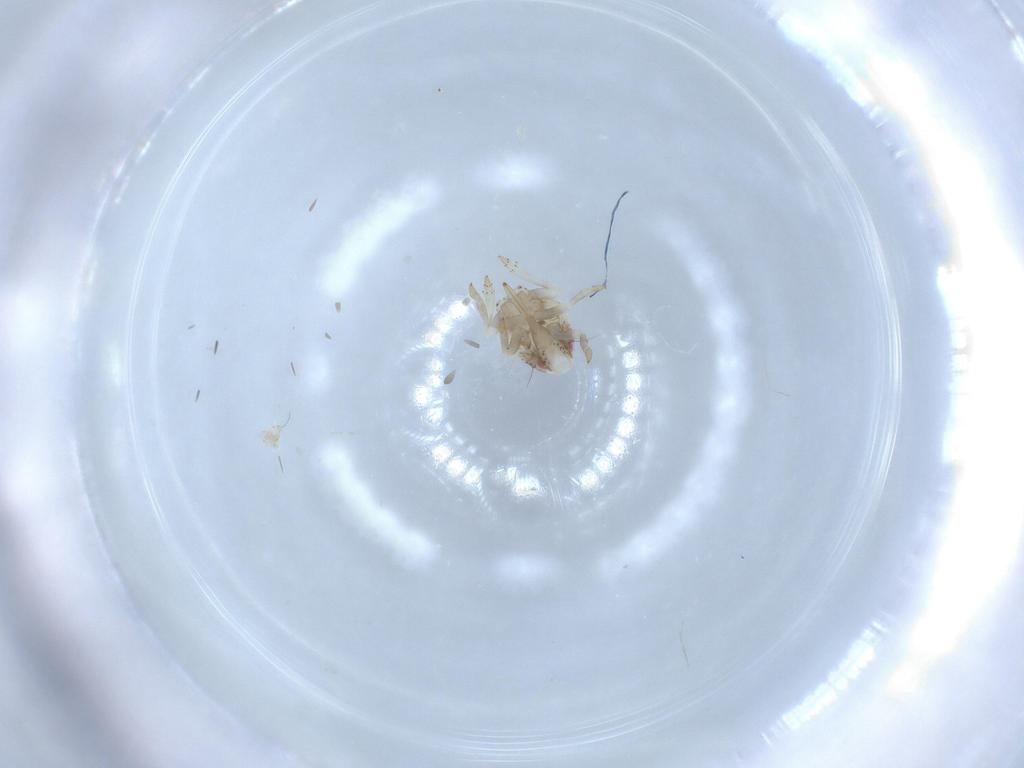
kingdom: Animalia
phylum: Arthropoda
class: Insecta
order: Hemiptera
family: Acanaloniidae
